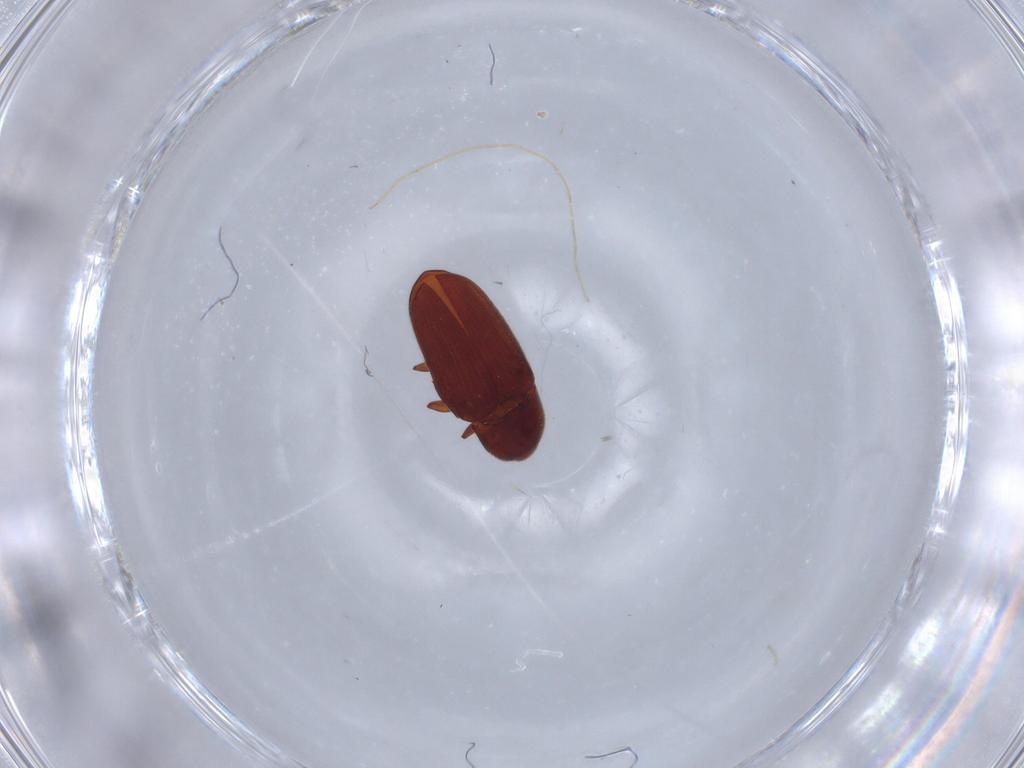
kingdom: Animalia
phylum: Arthropoda
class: Insecta
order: Coleoptera
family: Throscidae
